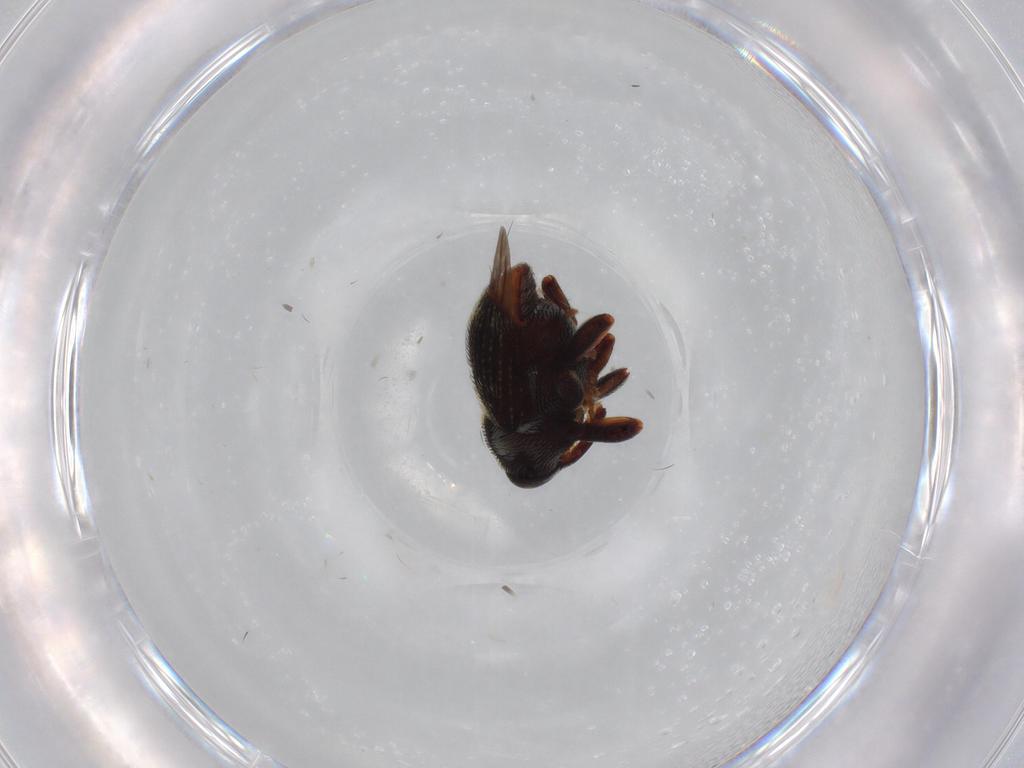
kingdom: Animalia
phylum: Arthropoda
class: Insecta
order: Coleoptera
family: Curculionidae
